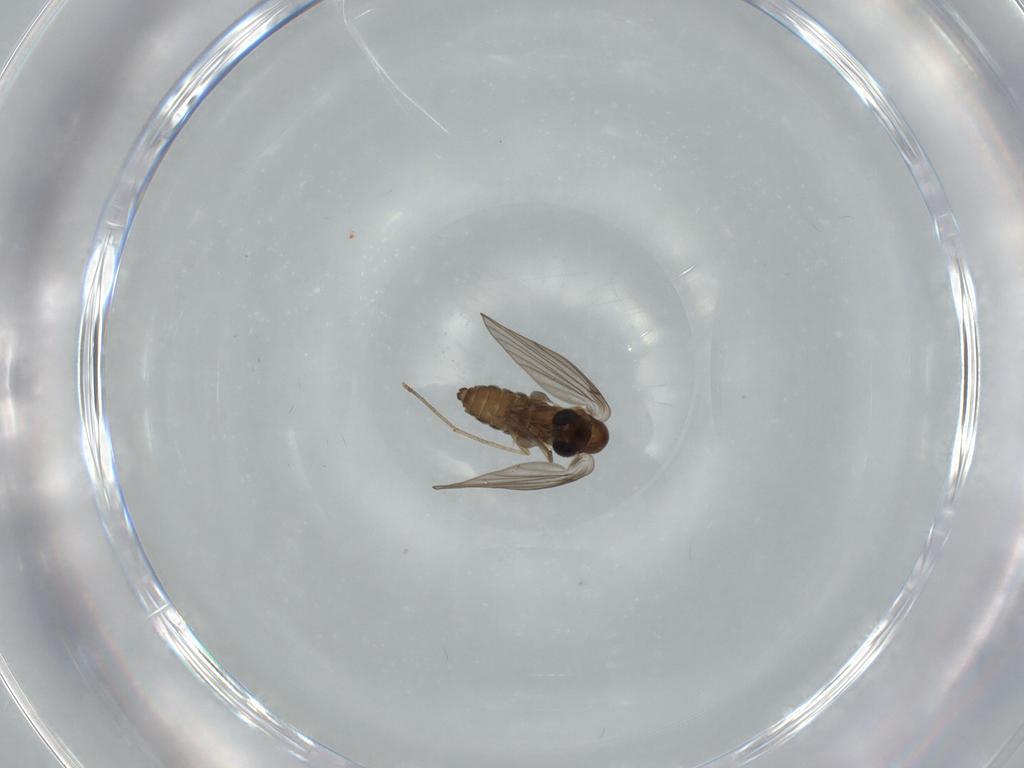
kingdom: Animalia
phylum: Arthropoda
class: Insecta
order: Diptera
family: Psychodidae
